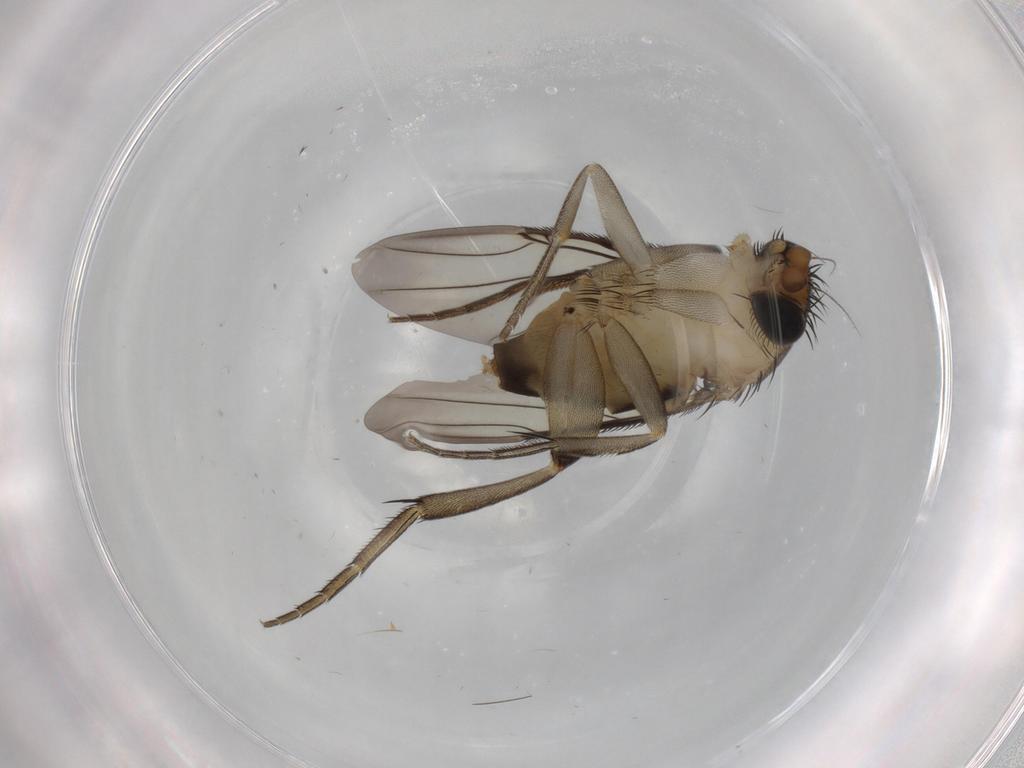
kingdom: Animalia
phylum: Arthropoda
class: Insecta
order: Diptera
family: Phoridae
